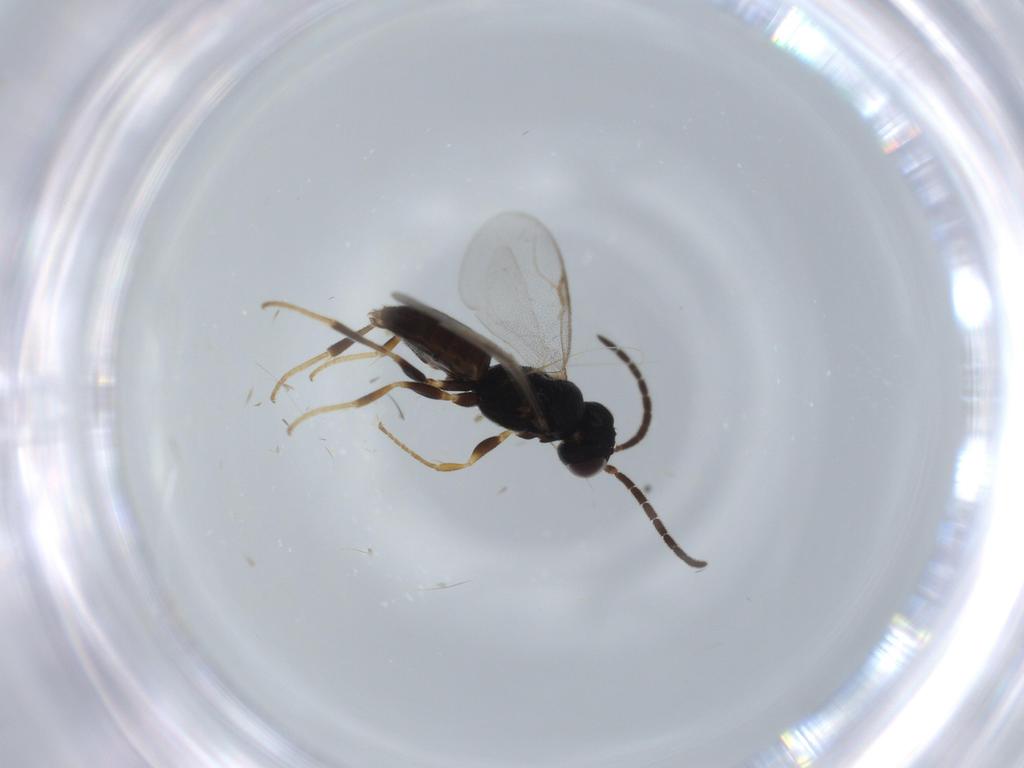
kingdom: Animalia
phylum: Arthropoda
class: Insecta
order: Hymenoptera
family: Dryinidae
